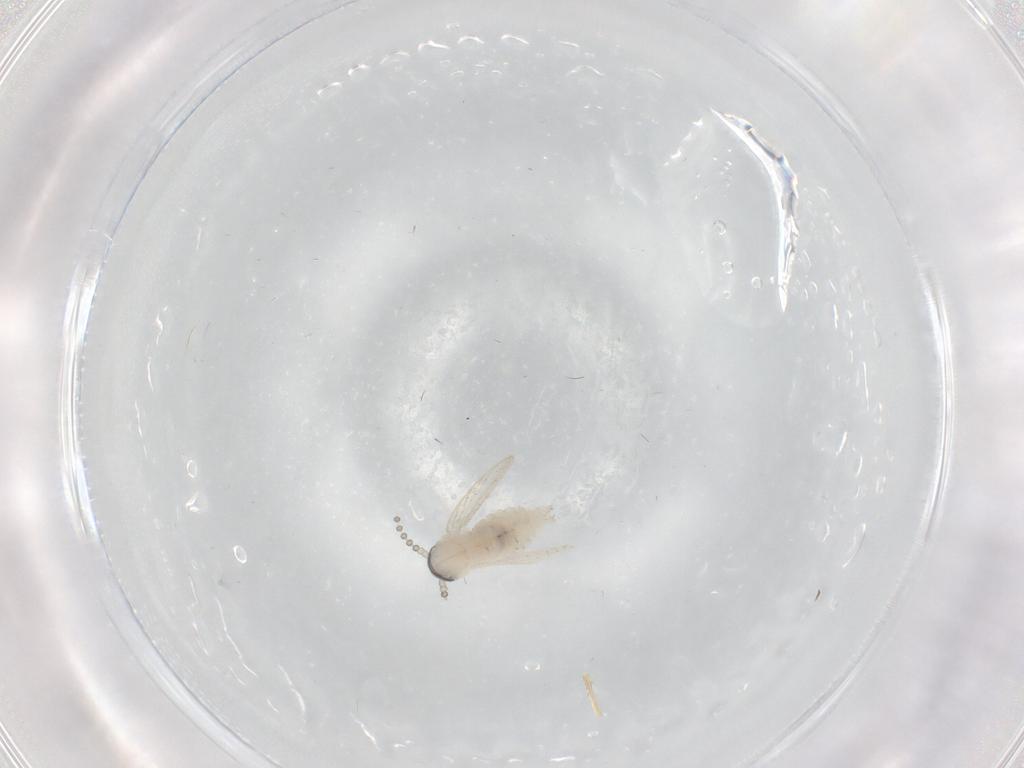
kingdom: Animalia
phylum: Arthropoda
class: Insecta
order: Diptera
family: Psychodidae
